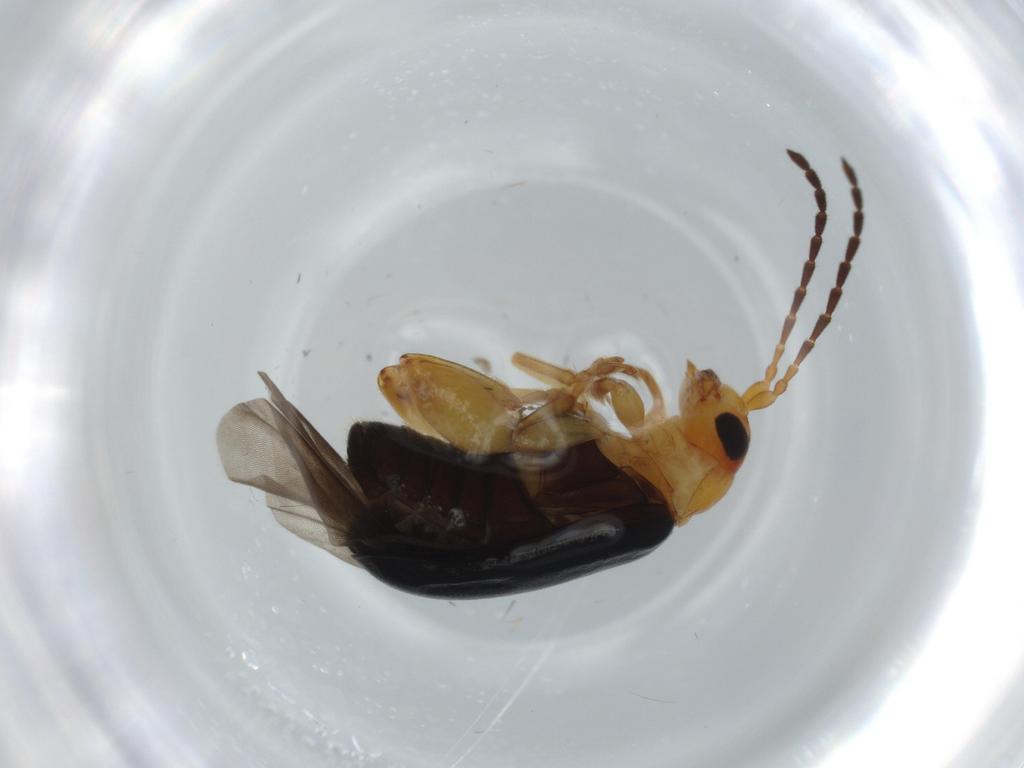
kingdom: Animalia
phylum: Arthropoda
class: Insecta
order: Coleoptera
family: Chrysomelidae
